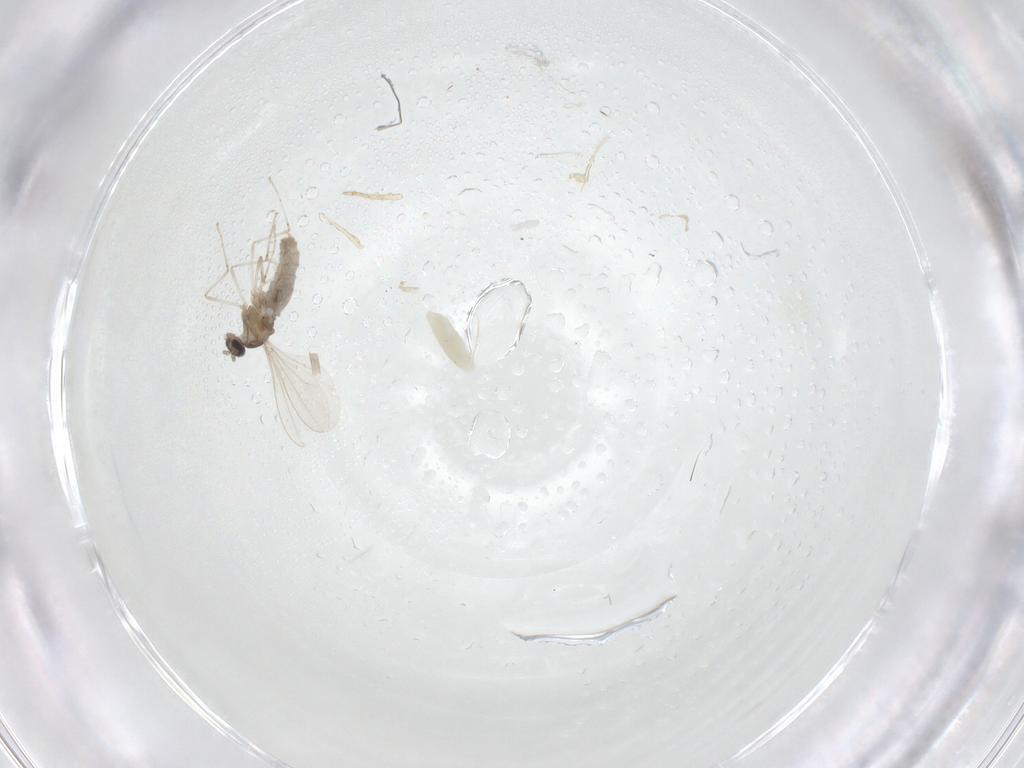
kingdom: Animalia
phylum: Arthropoda
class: Insecta
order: Diptera
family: Cecidomyiidae
